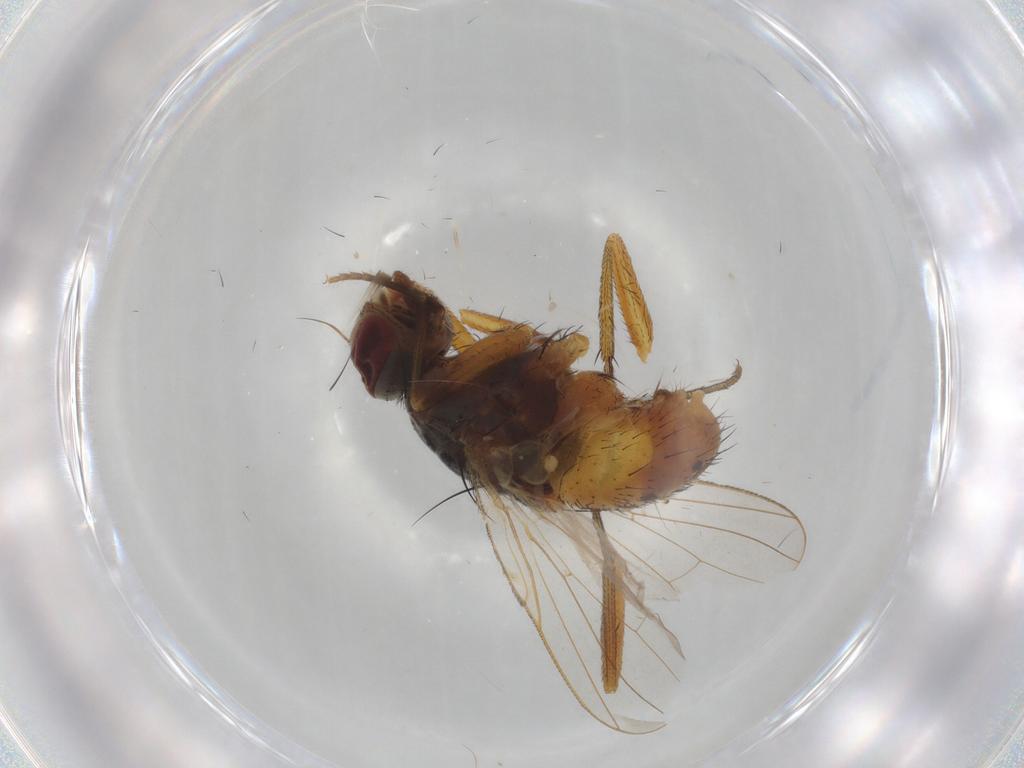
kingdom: Animalia
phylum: Arthropoda
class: Insecta
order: Diptera
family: Muscidae
